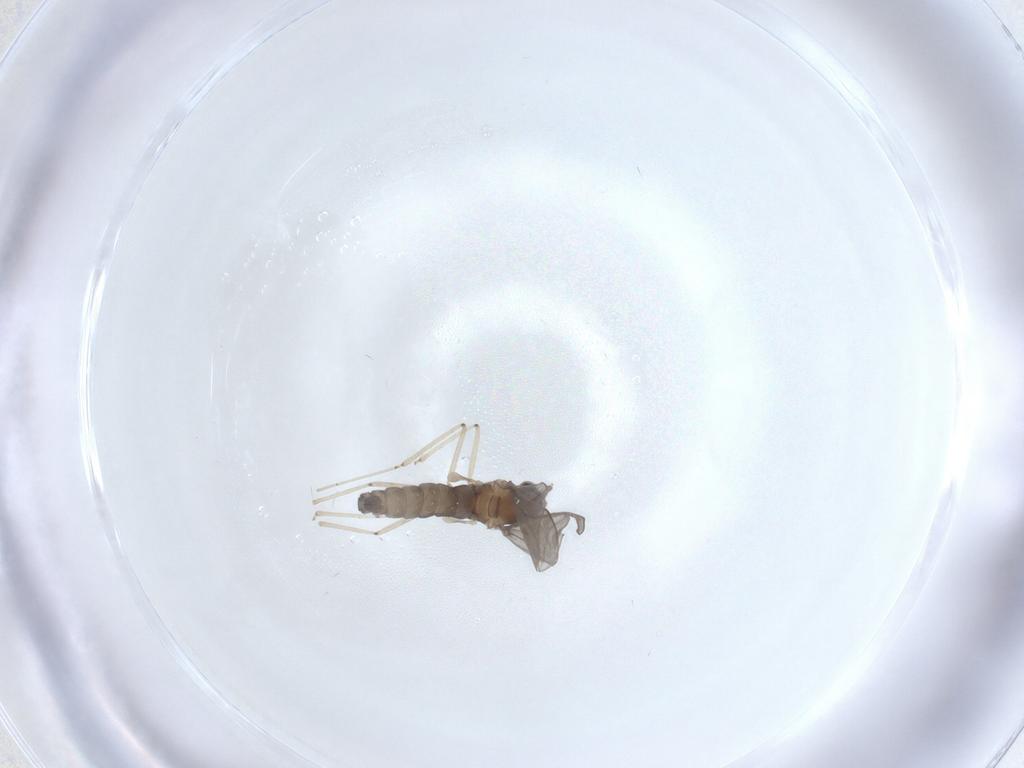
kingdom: Animalia
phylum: Arthropoda
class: Insecta
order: Diptera
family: Cecidomyiidae
